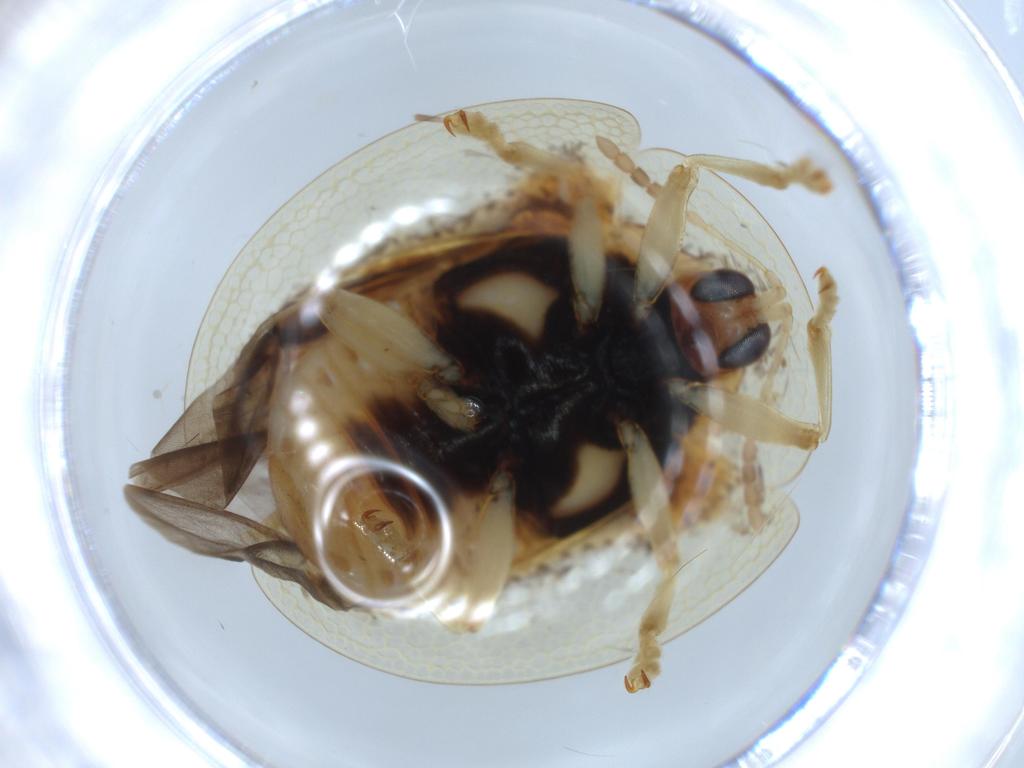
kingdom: Animalia
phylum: Arthropoda
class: Insecta
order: Coleoptera
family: Chrysomelidae
